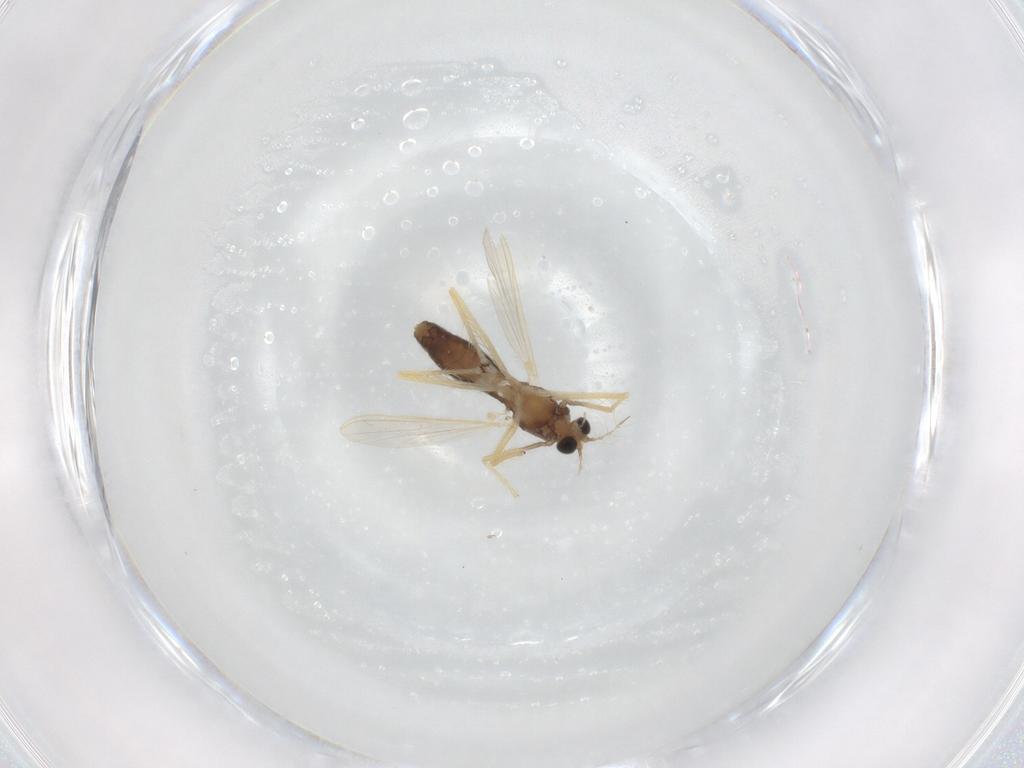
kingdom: Animalia
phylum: Arthropoda
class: Insecta
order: Diptera
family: Chironomidae
